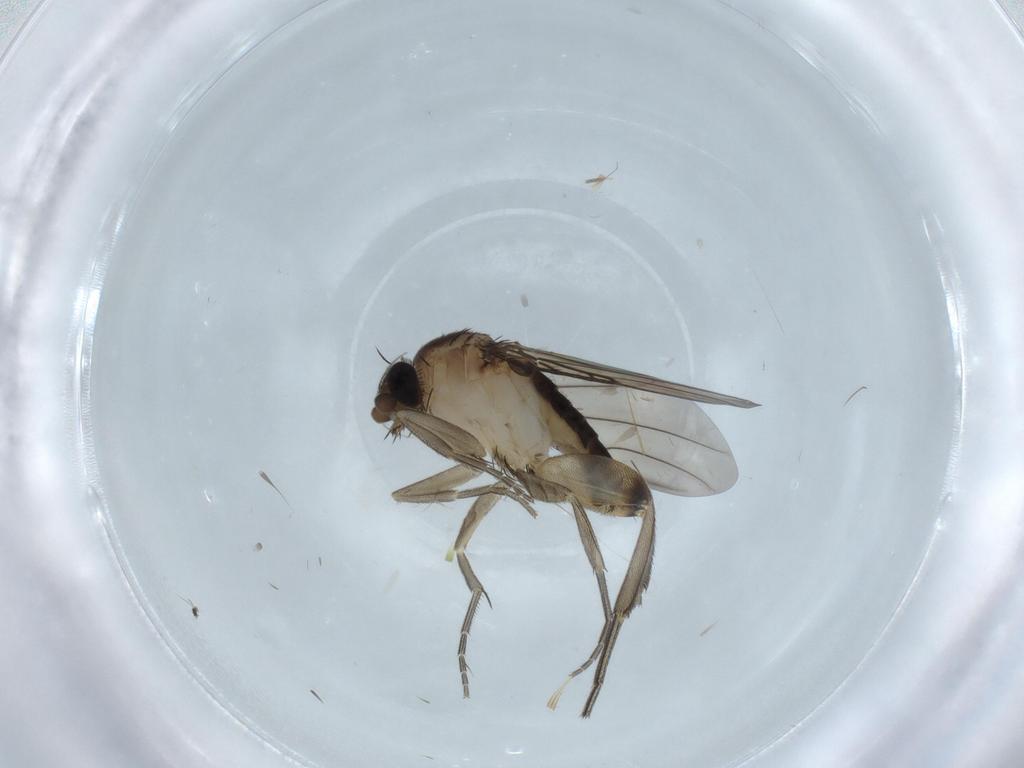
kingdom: Animalia
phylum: Arthropoda
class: Insecta
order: Diptera
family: Phoridae
